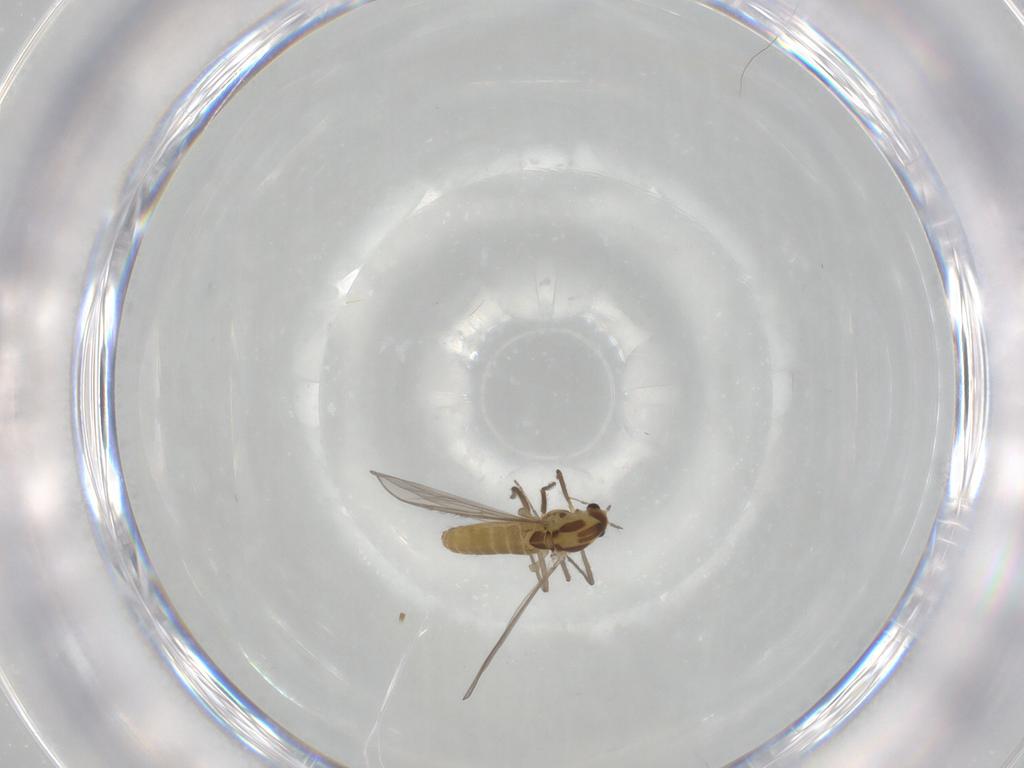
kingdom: Animalia
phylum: Arthropoda
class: Insecta
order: Diptera
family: Chironomidae
